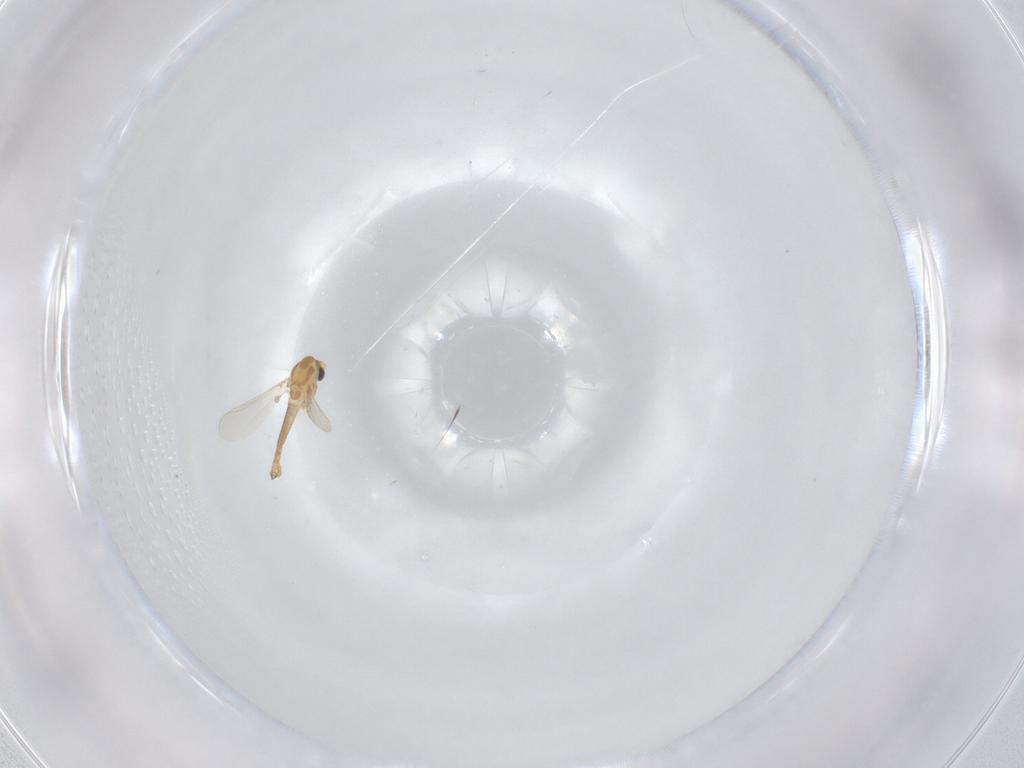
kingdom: Animalia
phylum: Arthropoda
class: Insecta
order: Diptera
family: Chironomidae
